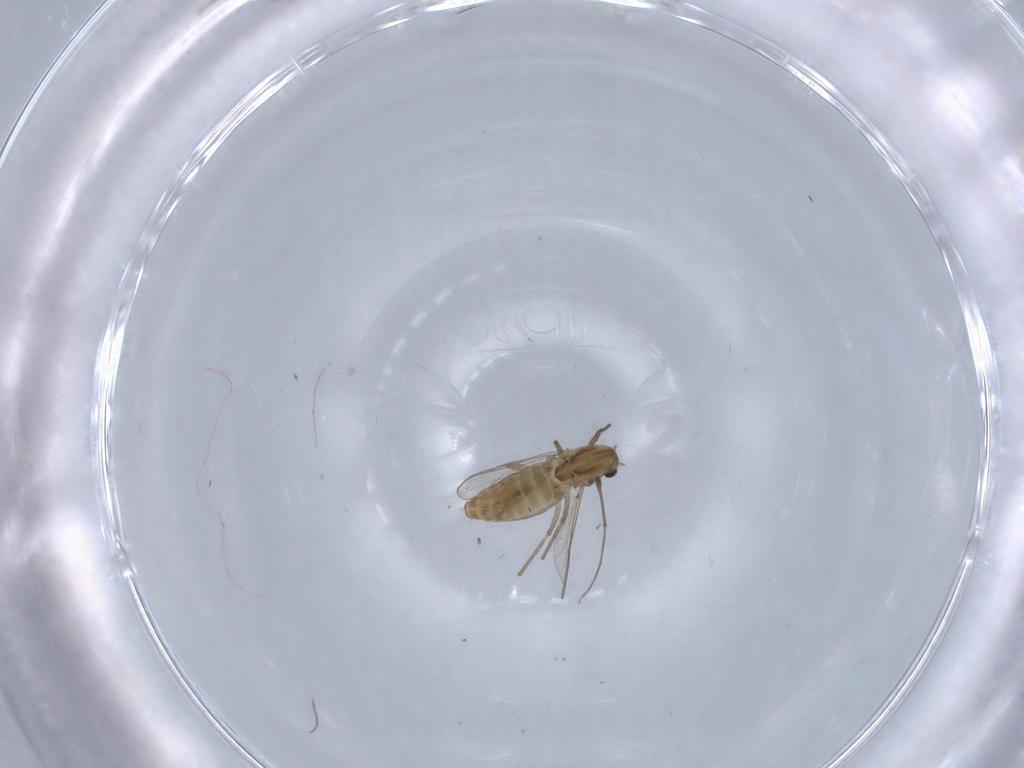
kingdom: Animalia
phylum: Arthropoda
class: Insecta
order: Diptera
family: Chironomidae
